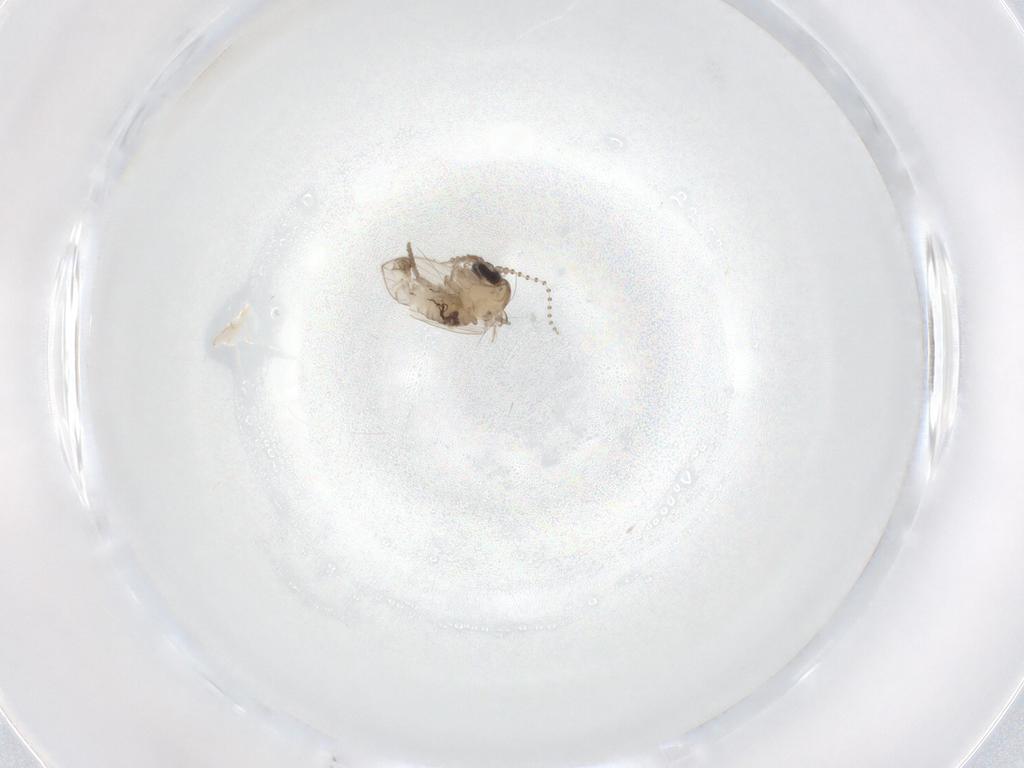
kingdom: Animalia
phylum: Arthropoda
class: Insecta
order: Diptera
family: Psychodidae
